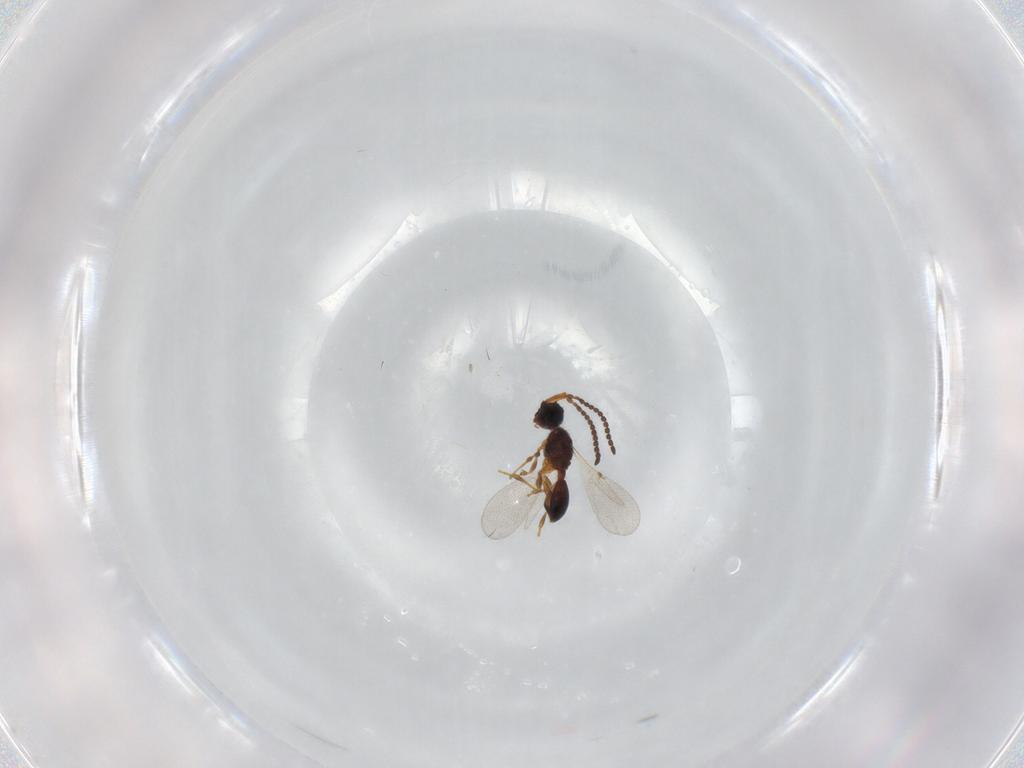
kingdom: Animalia
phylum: Arthropoda
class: Insecta
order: Hymenoptera
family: Diapriidae
